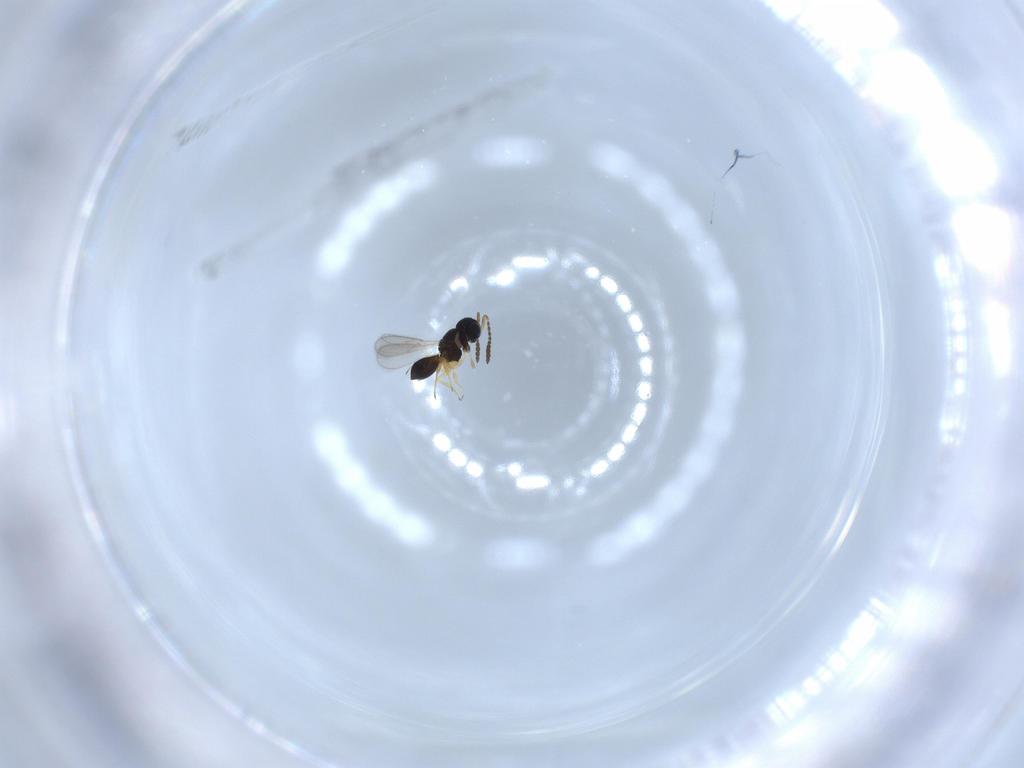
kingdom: Animalia
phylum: Arthropoda
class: Insecta
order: Hymenoptera
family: Scelionidae
